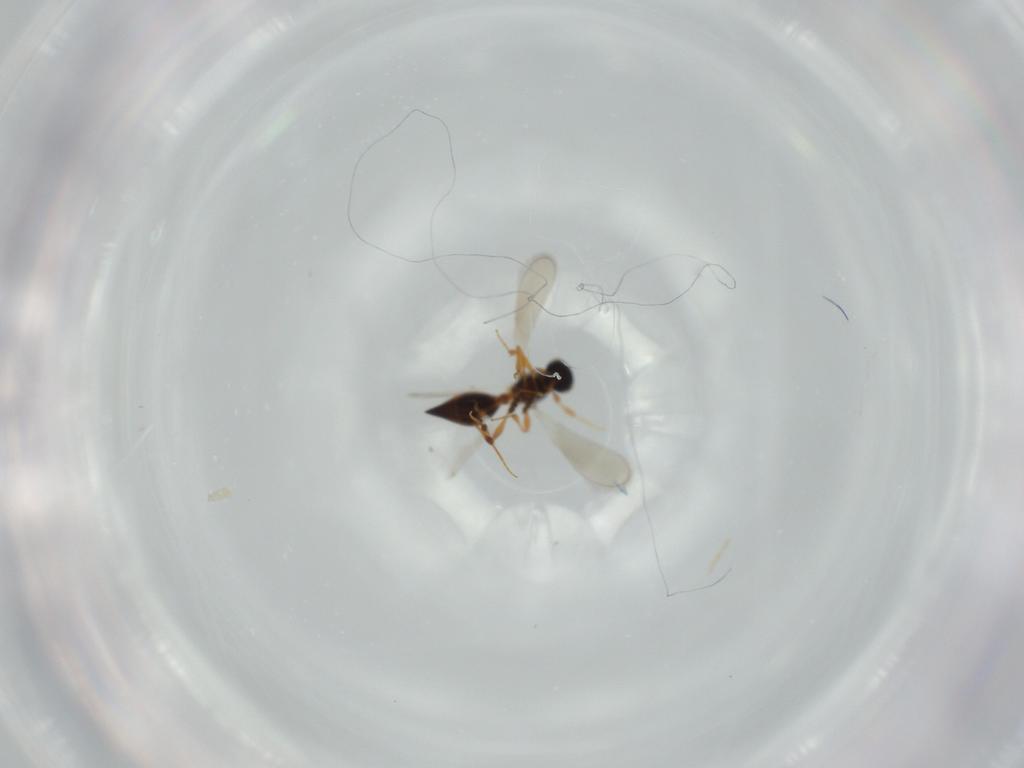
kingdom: Animalia
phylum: Arthropoda
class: Insecta
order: Hymenoptera
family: Platygastridae
